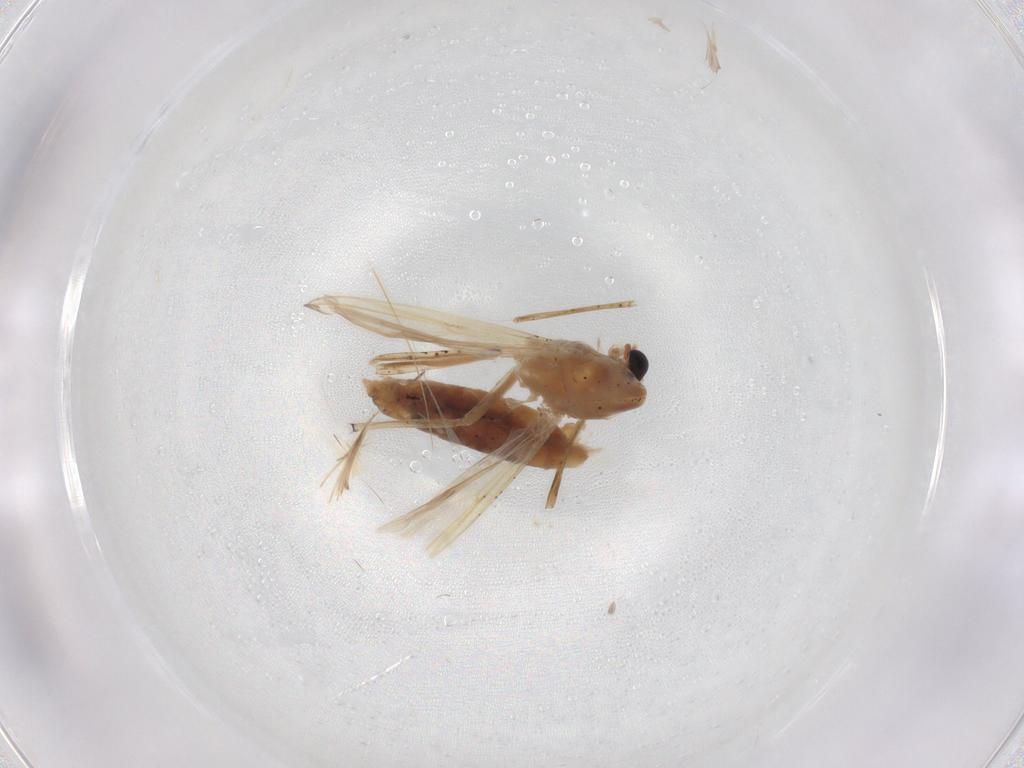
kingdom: Animalia
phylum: Arthropoda
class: Insecta
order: Diptera
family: Chironomidae
